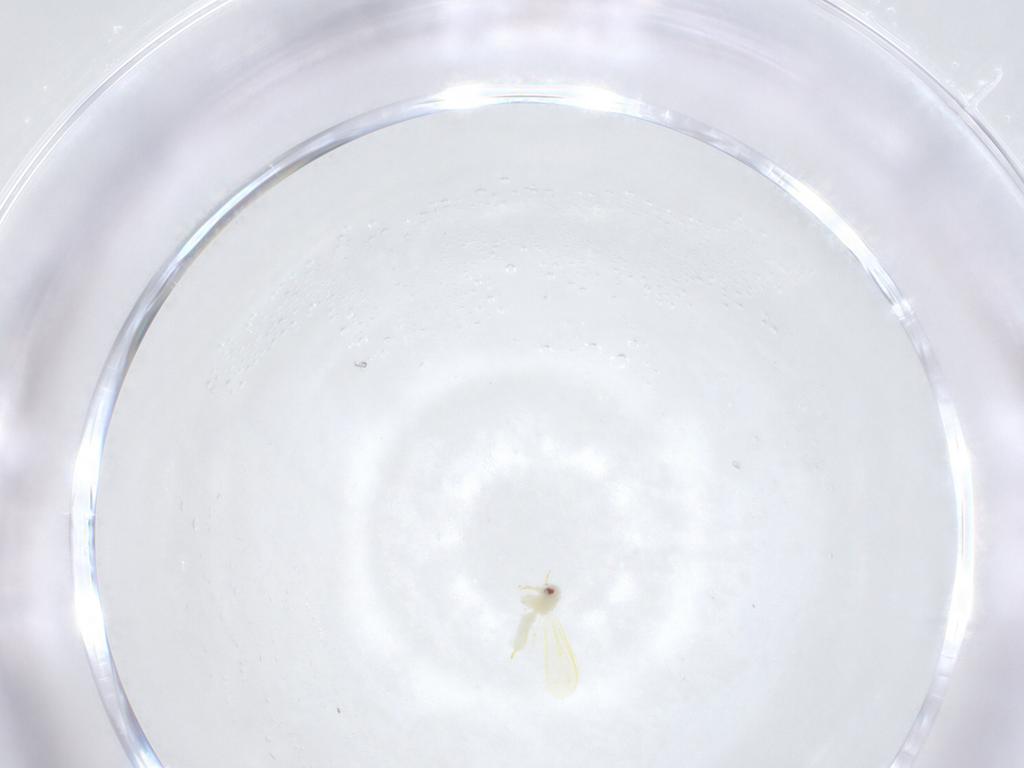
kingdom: Animalia
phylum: Arthropoda
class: Insecta
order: Hemiptera
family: Aleyrodidae
